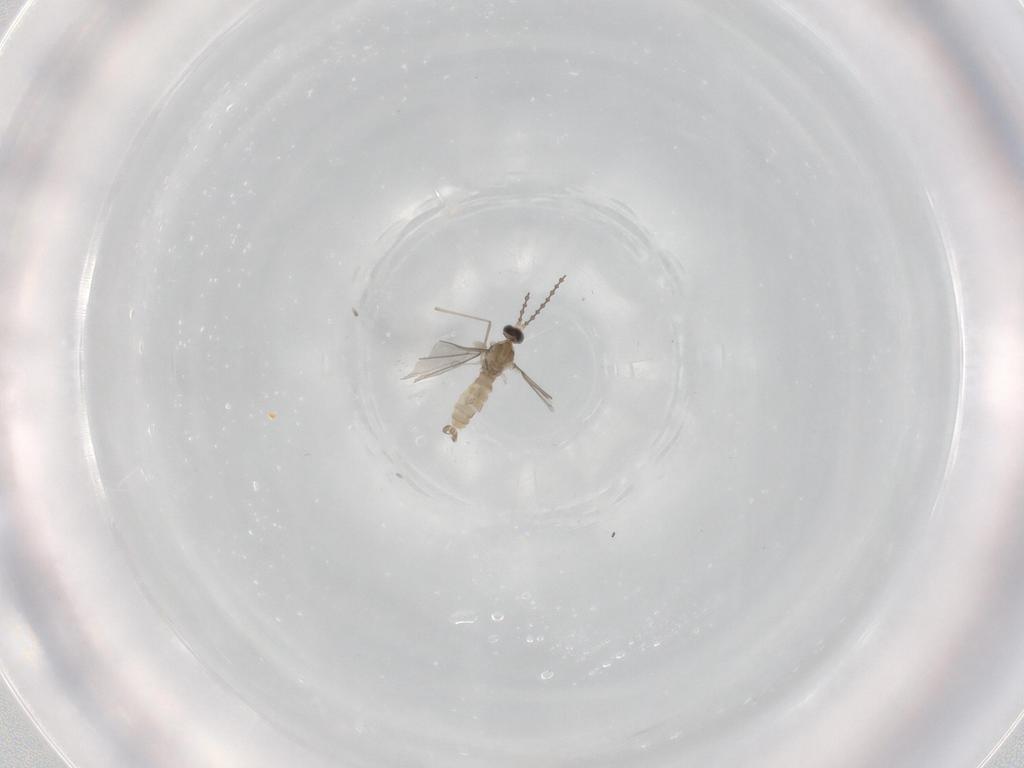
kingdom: Animalia
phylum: Arthropoda
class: Insecta
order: Diptera
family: Cecidomyiidae
